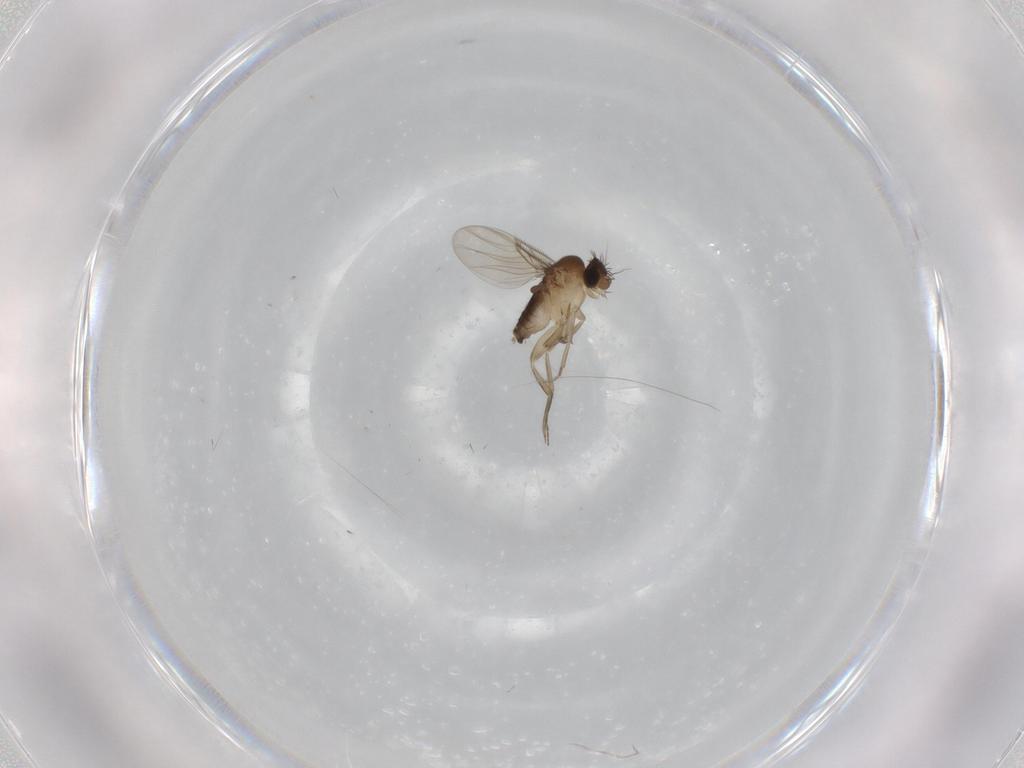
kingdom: Animalia
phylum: Arthropoda
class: Insecta
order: Diptera
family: Phoridae
